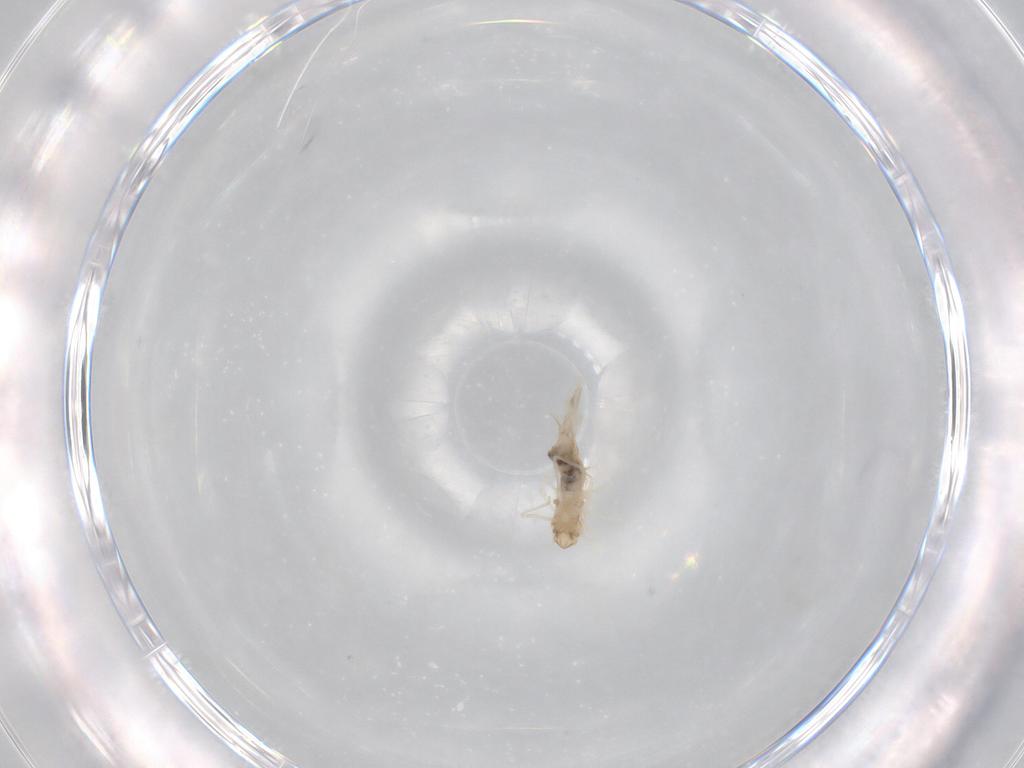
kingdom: Animalia
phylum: Arthropoda
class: Insecta
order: Diptera
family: Cecidomyiidae
